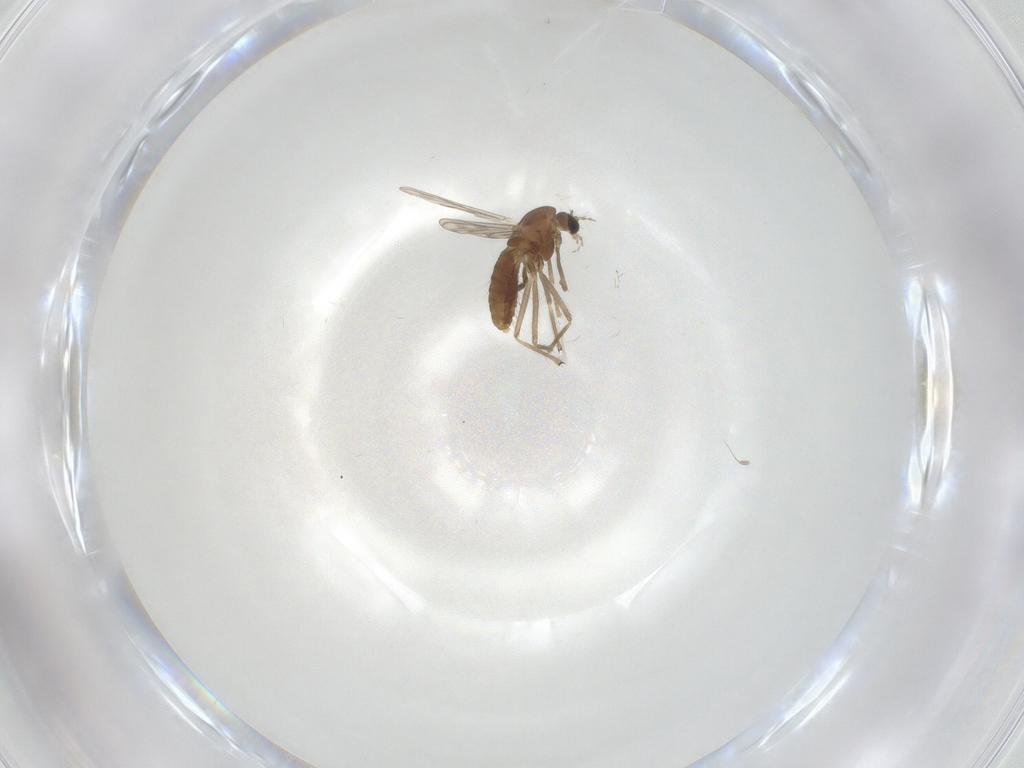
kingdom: Animalia
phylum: Arthropoda
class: Insecta
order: Diptera
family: Chironomidae
